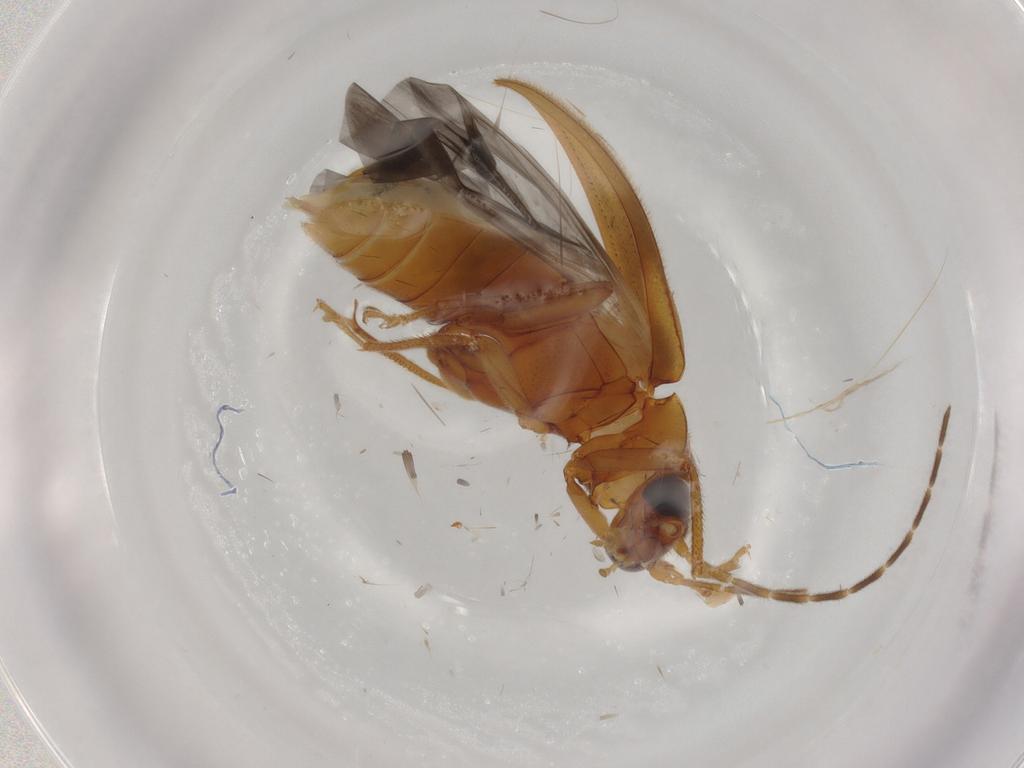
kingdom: Animalia
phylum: Arthropoda
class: Insecta
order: Coleoptera
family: Ptilodactylidae
